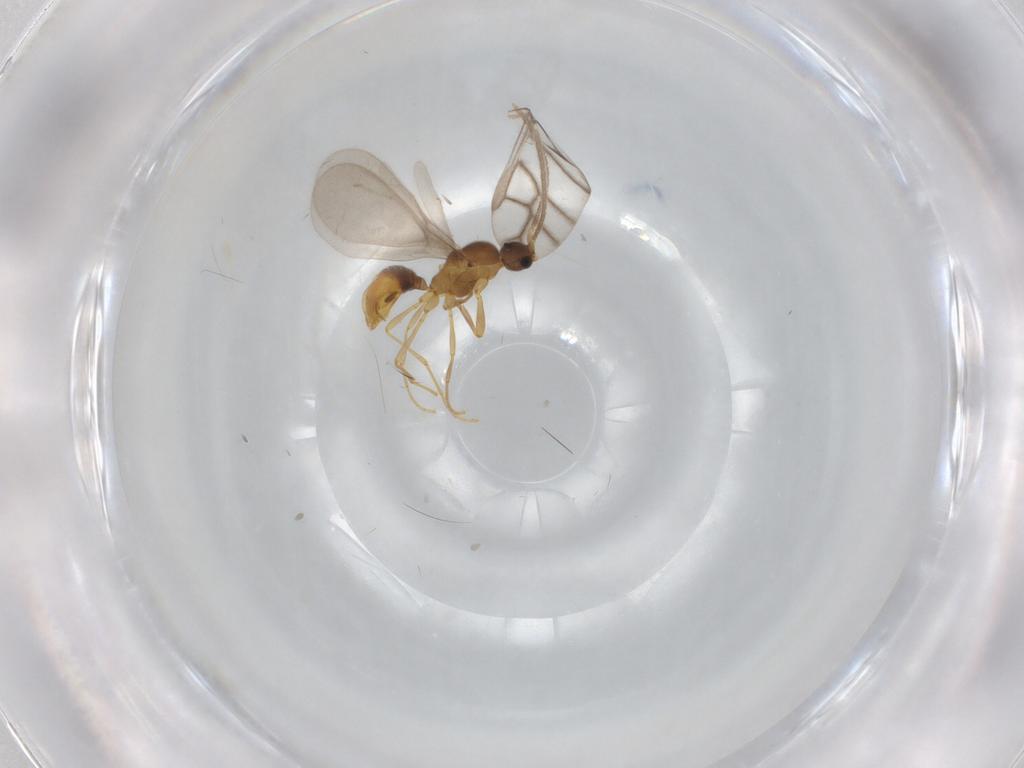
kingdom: Animalia
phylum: Arthropoda
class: Insecta
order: Hymenoptera
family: Formicidae
